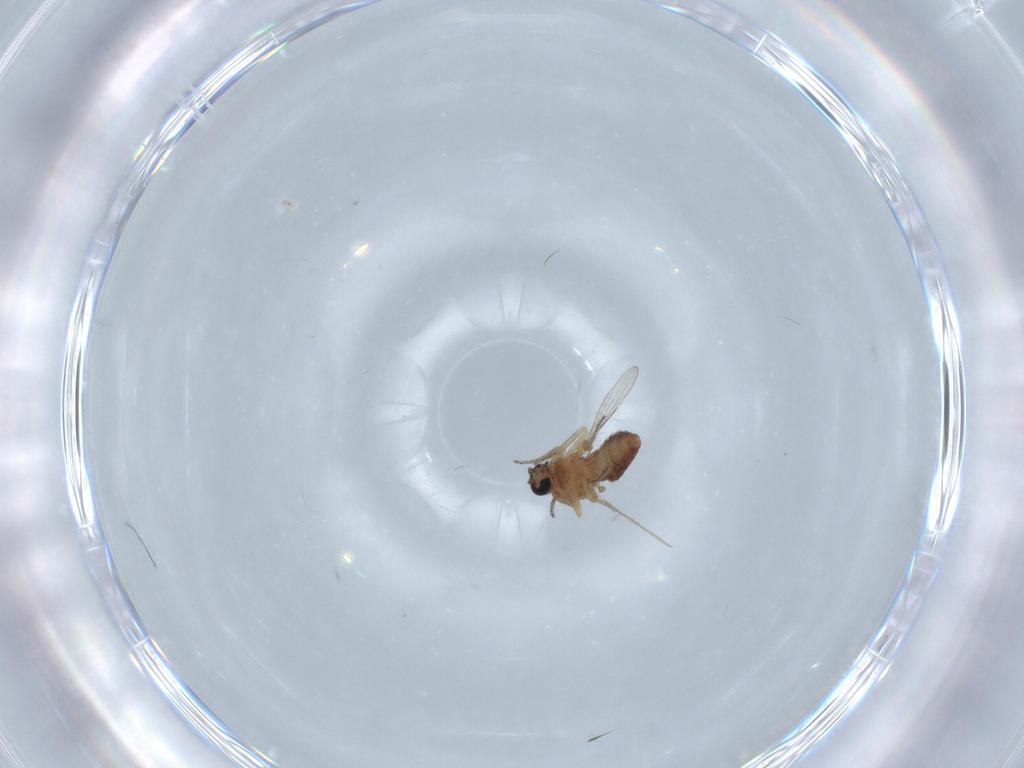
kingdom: Animalia
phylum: Arthropoda
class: Insecta
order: Diptera
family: Ceratopogonidae
